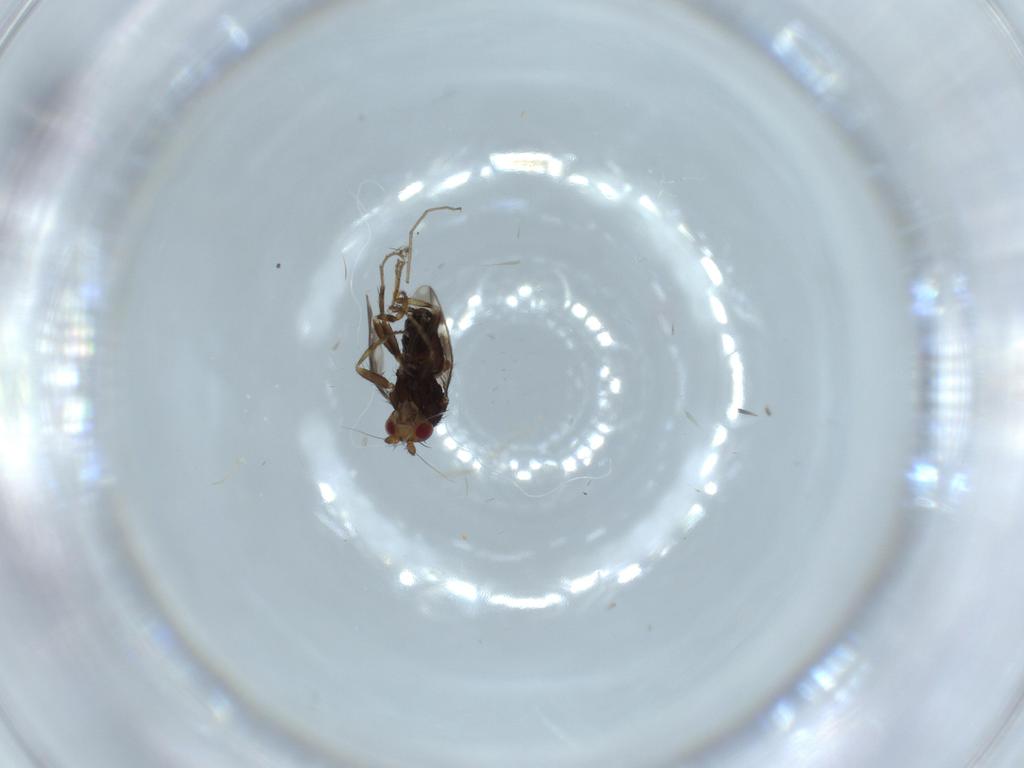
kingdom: Animalia
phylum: Arthropoda
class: Insecta
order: Diptera
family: Sphaeroceridae
